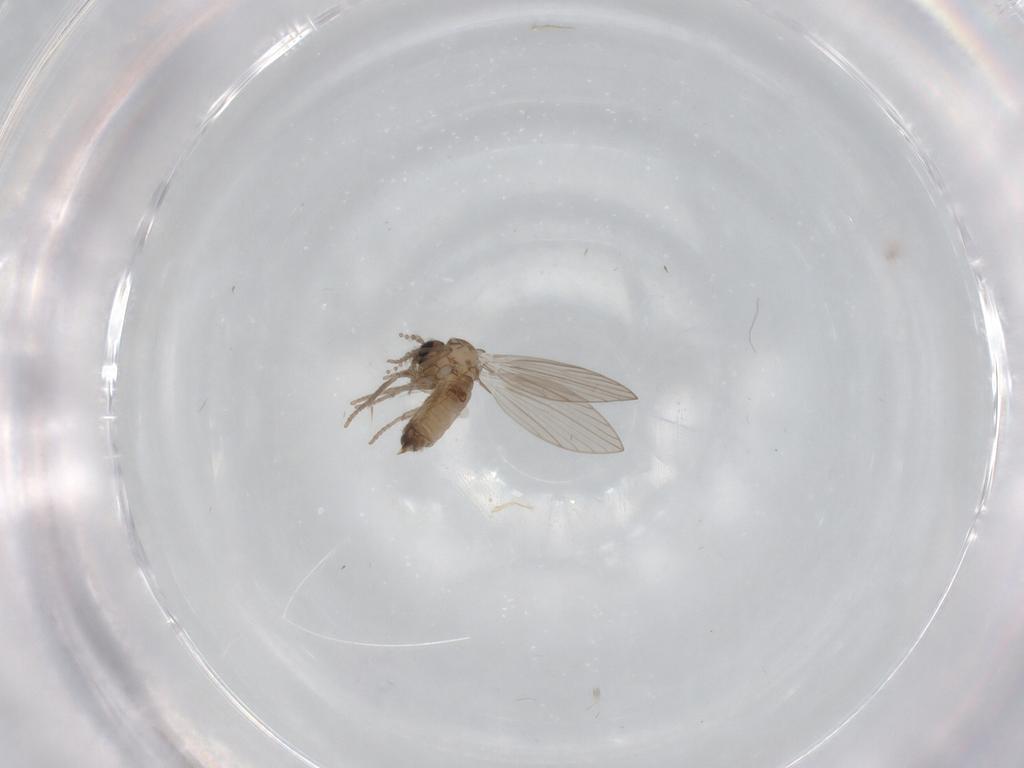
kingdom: Animalia
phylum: Arthropoda
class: Insecta
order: Diptera
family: Psychodidae
